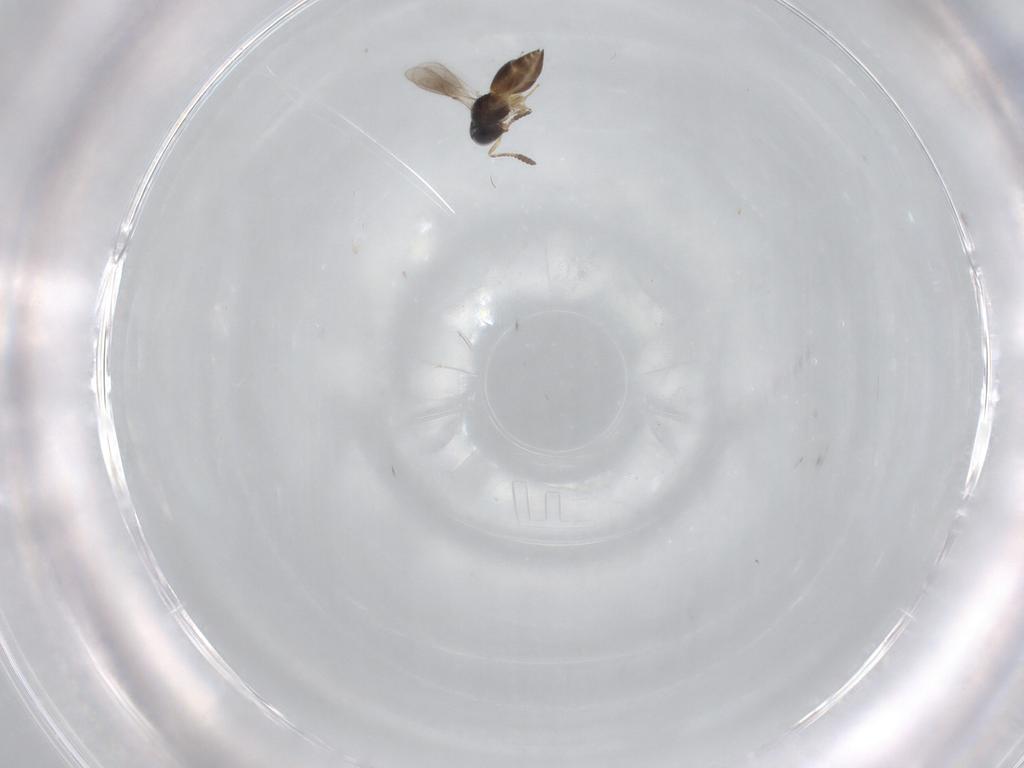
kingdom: Animalia
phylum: Arthropoda
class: Insecta
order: Hymenoptera
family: Scelionidae
